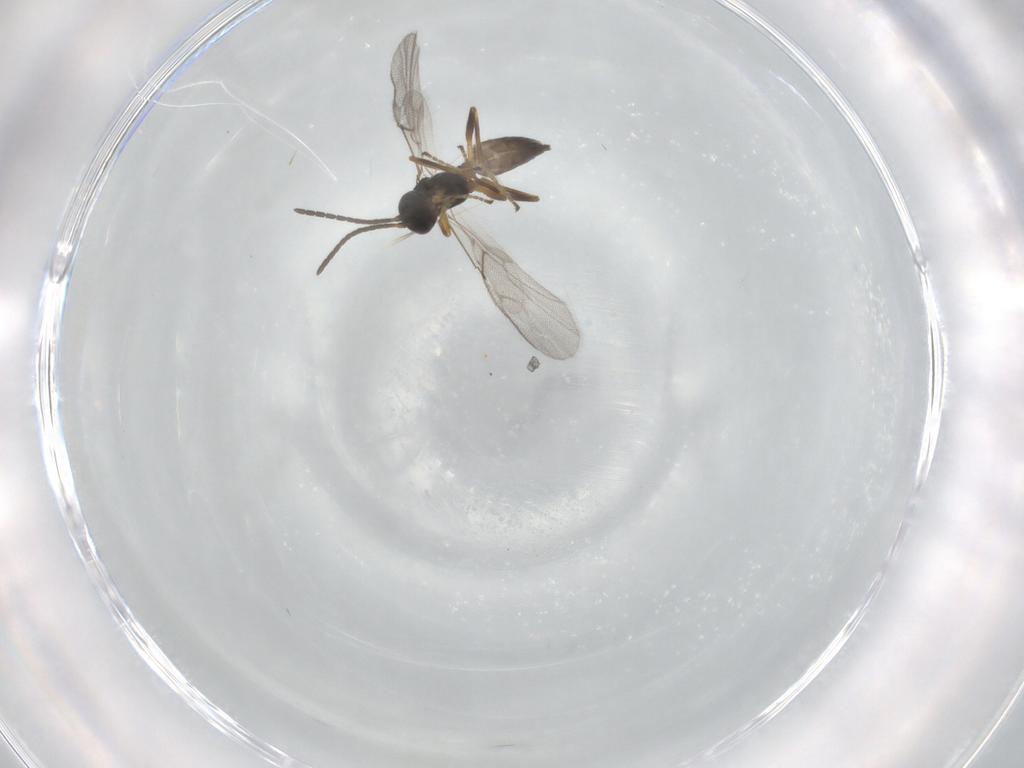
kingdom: Animalia
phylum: Arthropoda
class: Insecta
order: Hymenoptera
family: Braconidae
